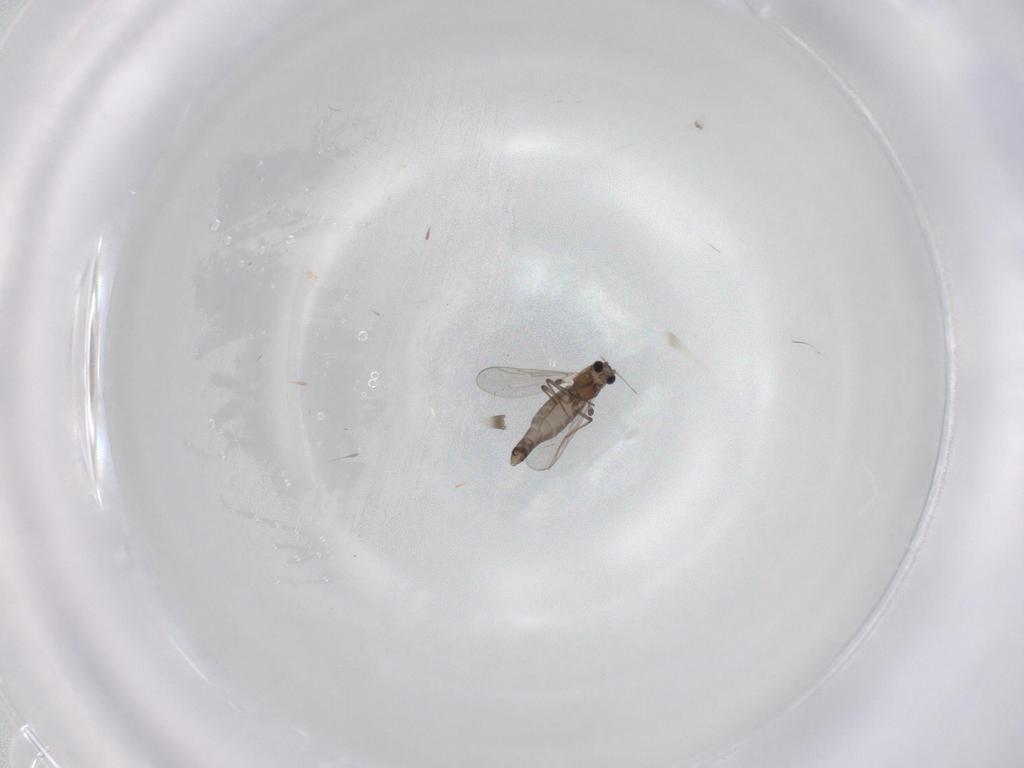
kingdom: Animalia
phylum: Arthropoda
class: Insecta
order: Diptera
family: Chironomidae
